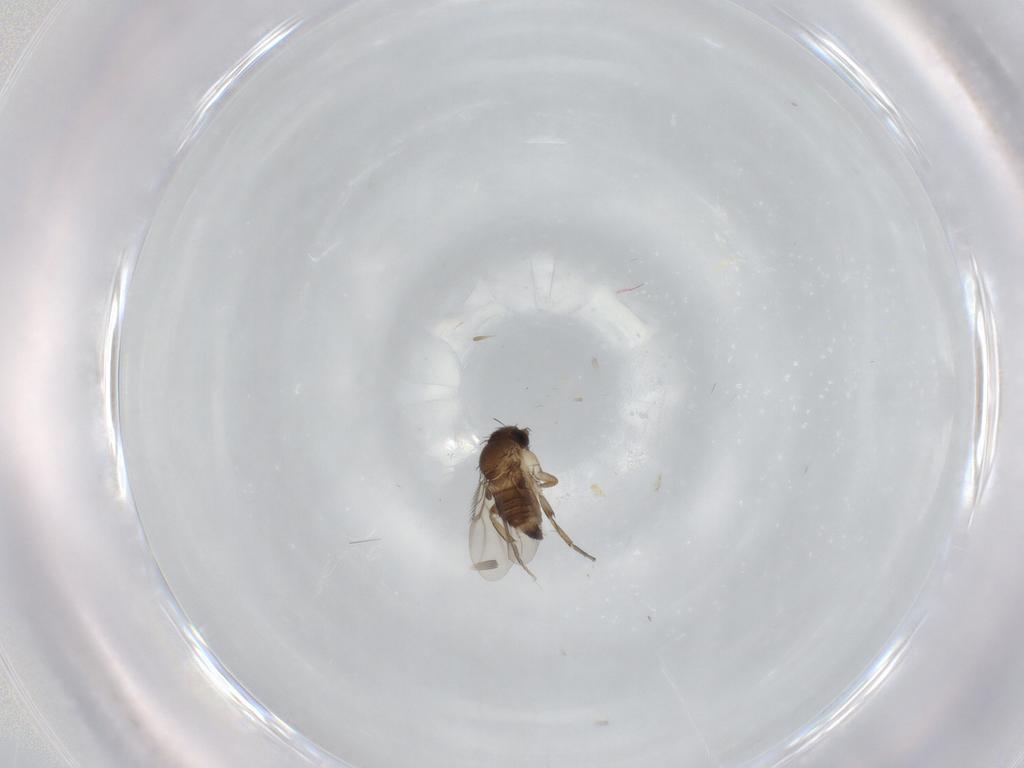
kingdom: Animalia
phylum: Arthropoda
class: Insecta
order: Diptera
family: Phoridae
